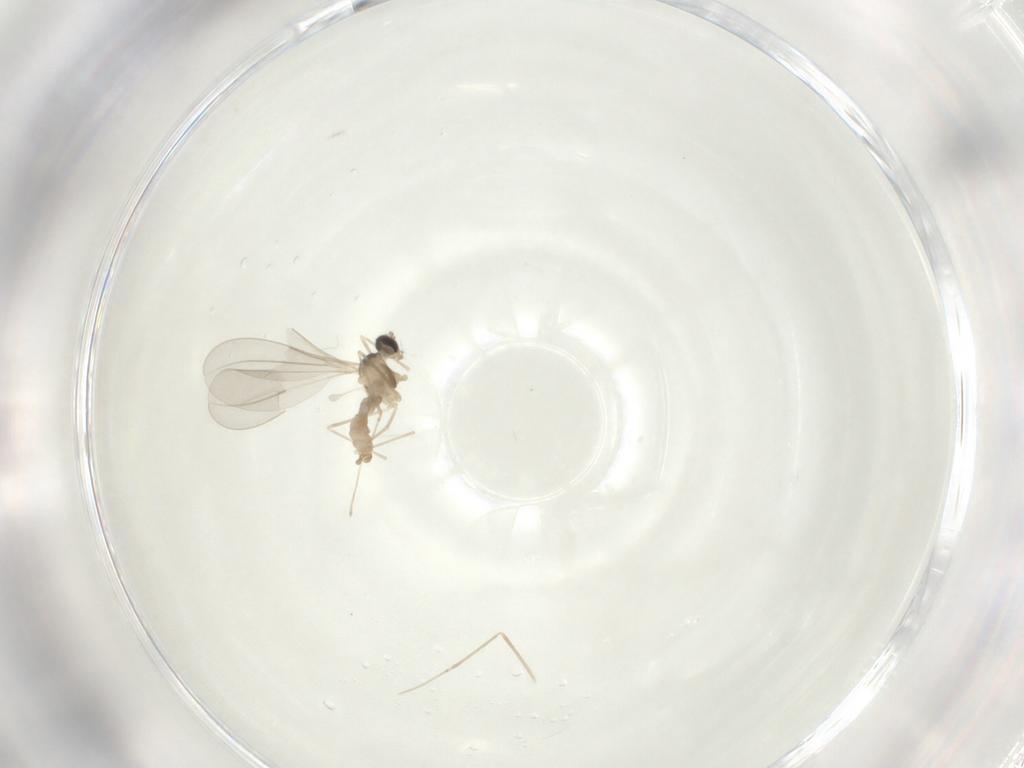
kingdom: Animalia
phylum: Arthropoda
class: Insecta
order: Diptera
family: Cecidomyiidae
